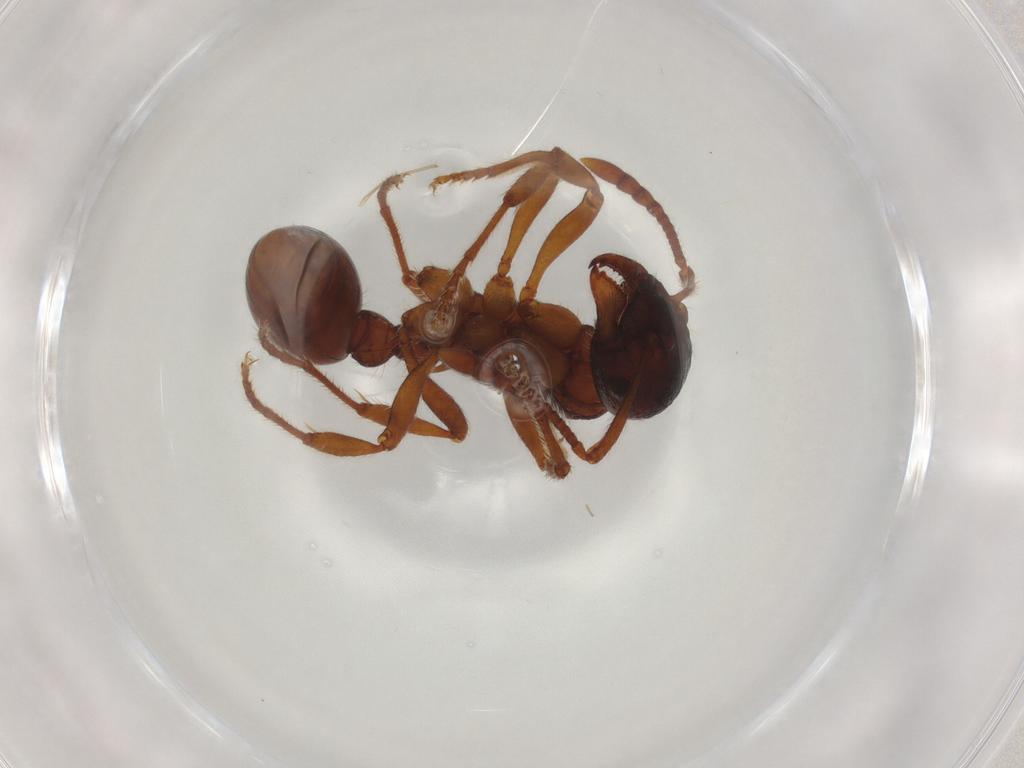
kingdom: Animalia
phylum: Arthropoda
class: Insecta
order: Hymenoptera
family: Formicidae
